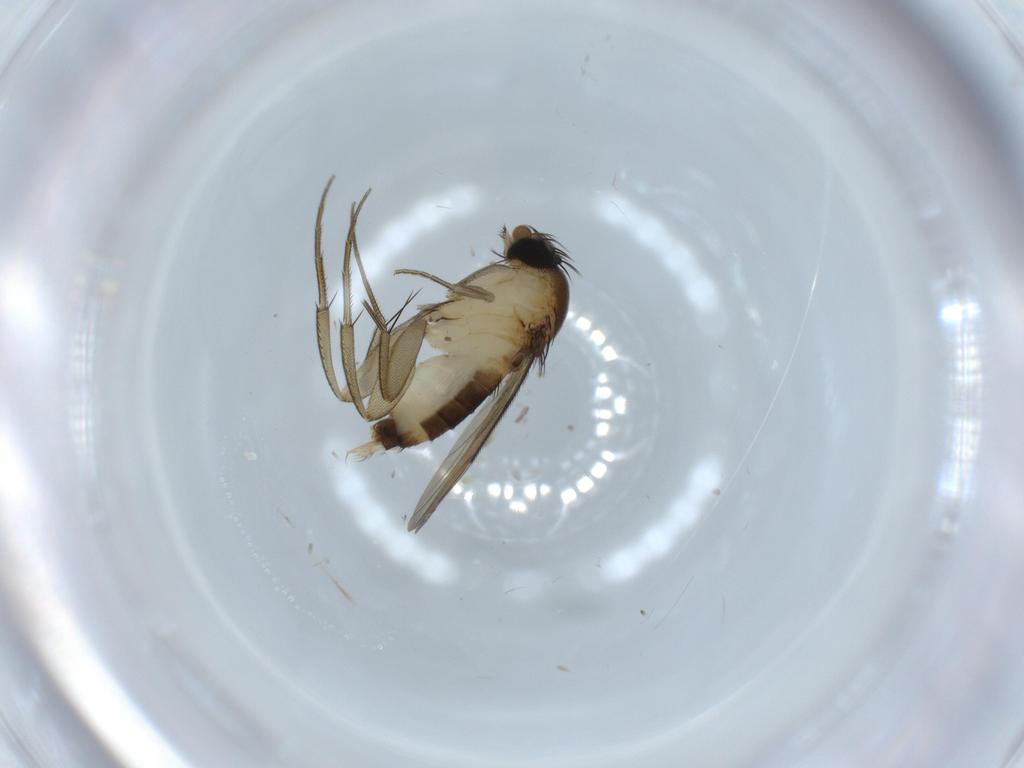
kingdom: Animalia
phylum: Arthropoda
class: Insecta
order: Diptera
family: Phoridae
